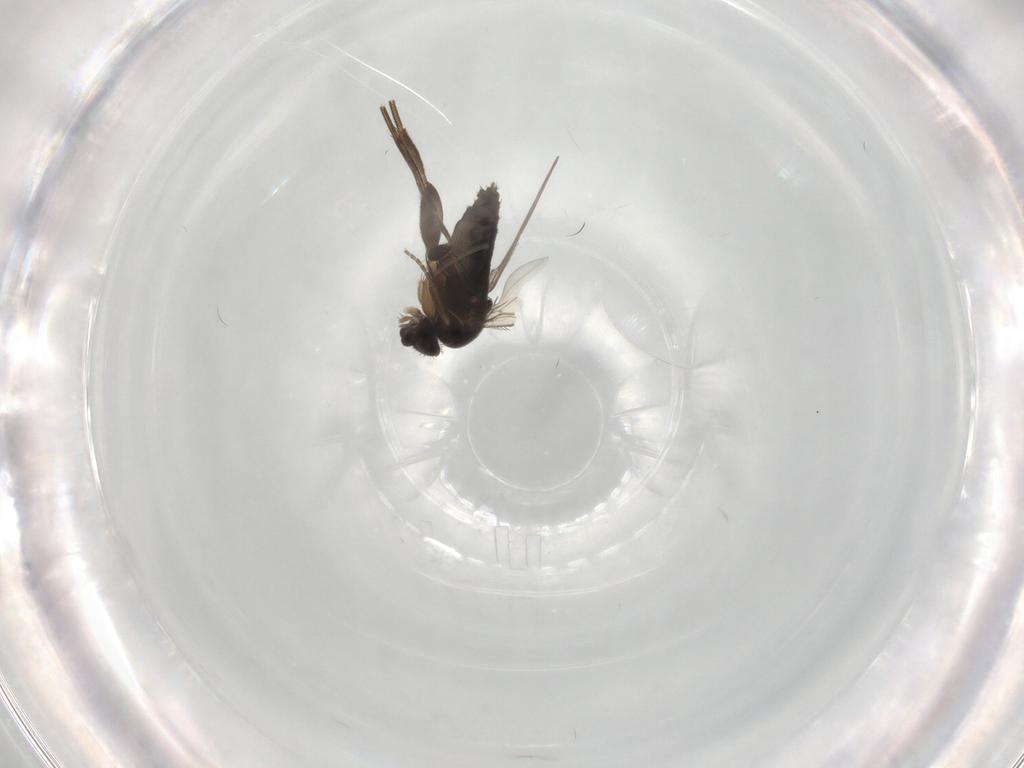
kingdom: Animalia
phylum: Arthropoda
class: Insecta
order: Diptera
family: Phoridae
